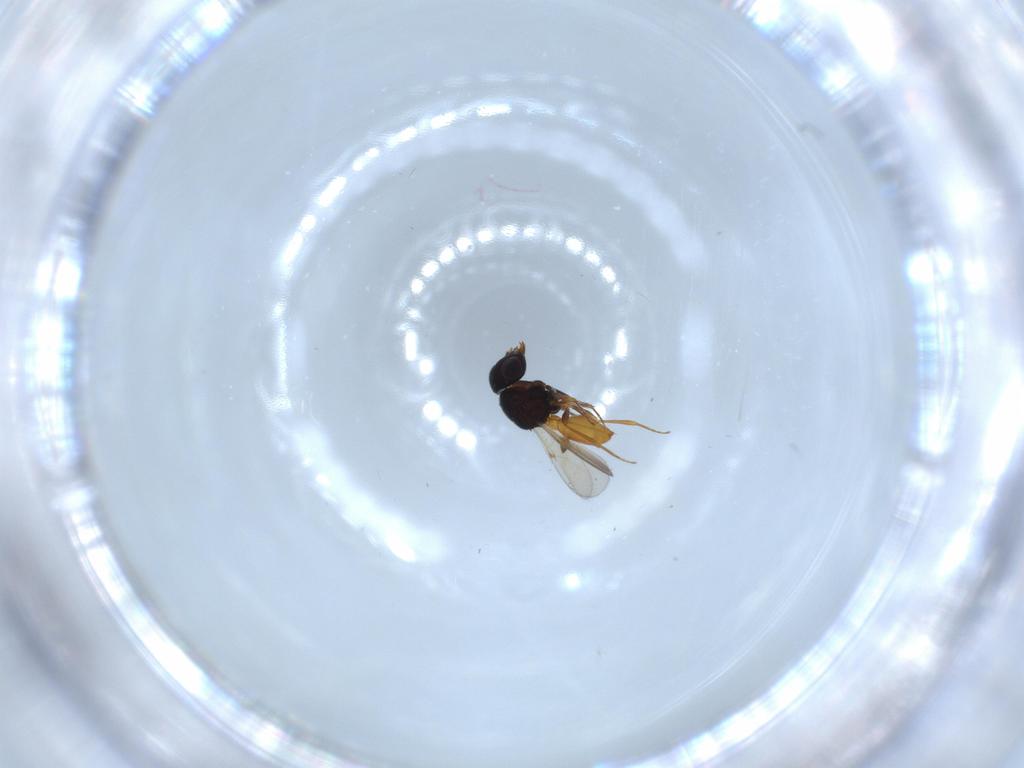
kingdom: Animalia
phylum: Arthropoda
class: Insecta
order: Hymenoptera
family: Scelionidae
